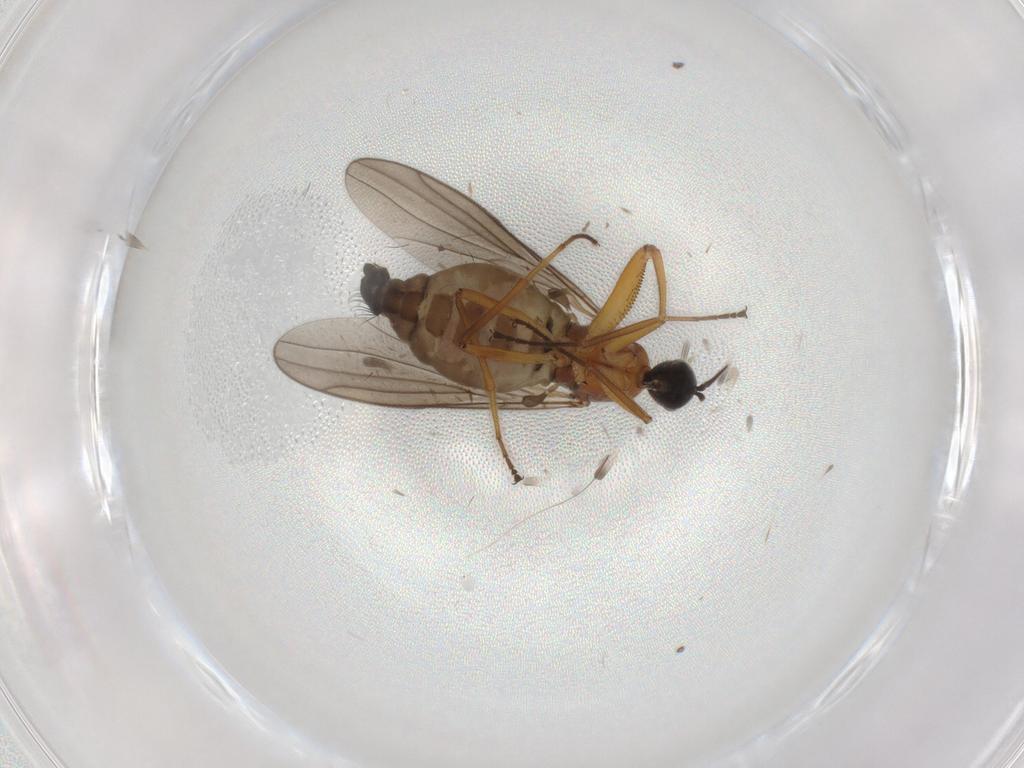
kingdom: Animalia
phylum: Arthropoda
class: Insecta
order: Diptera
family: Hybotidae
